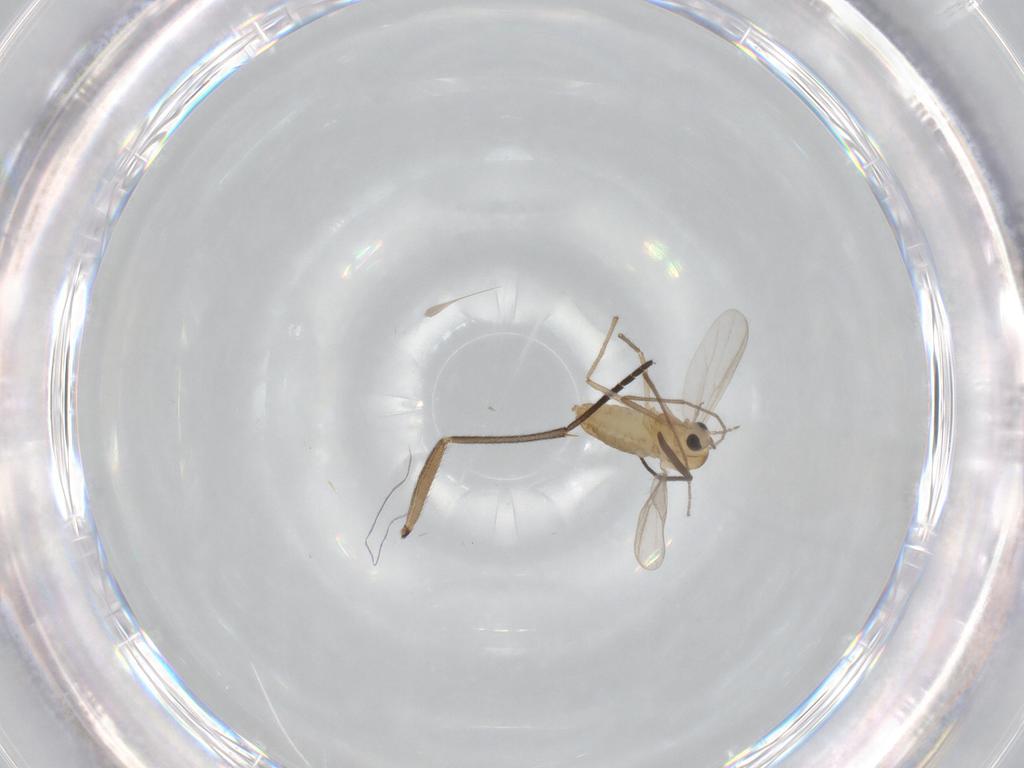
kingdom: Animalia
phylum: Arthropoda
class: Insecta
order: Diptera
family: Chironomidae
